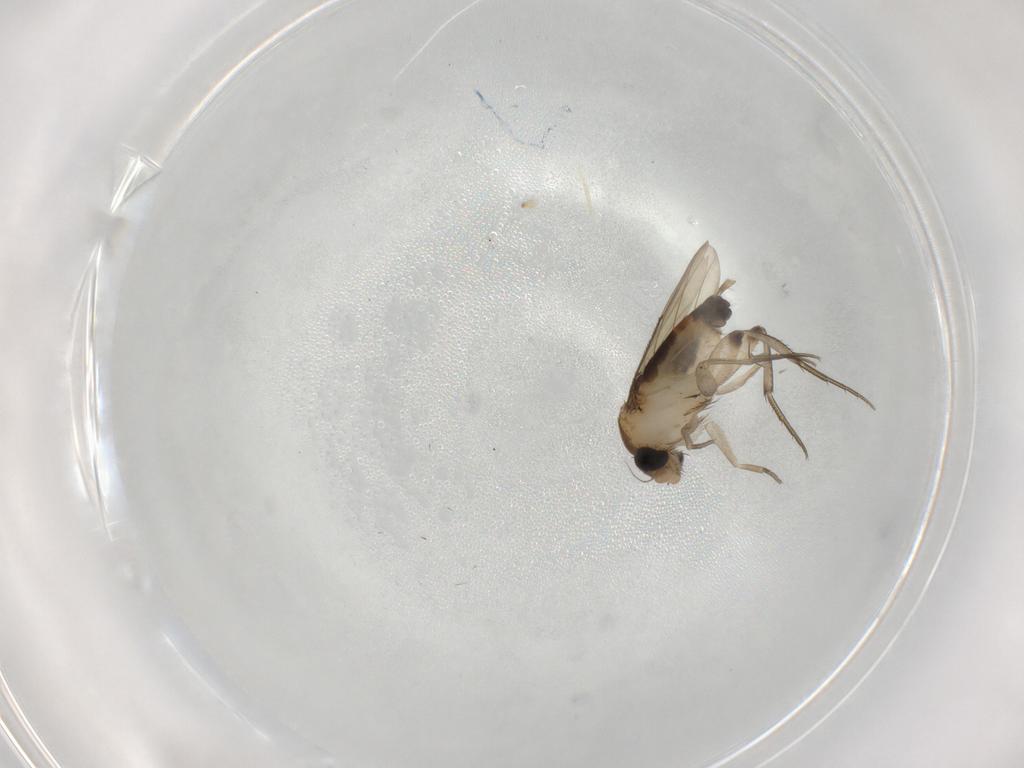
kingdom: Animalia
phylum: Arthropoda
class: Insecta
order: Diptera
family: Phoridae
